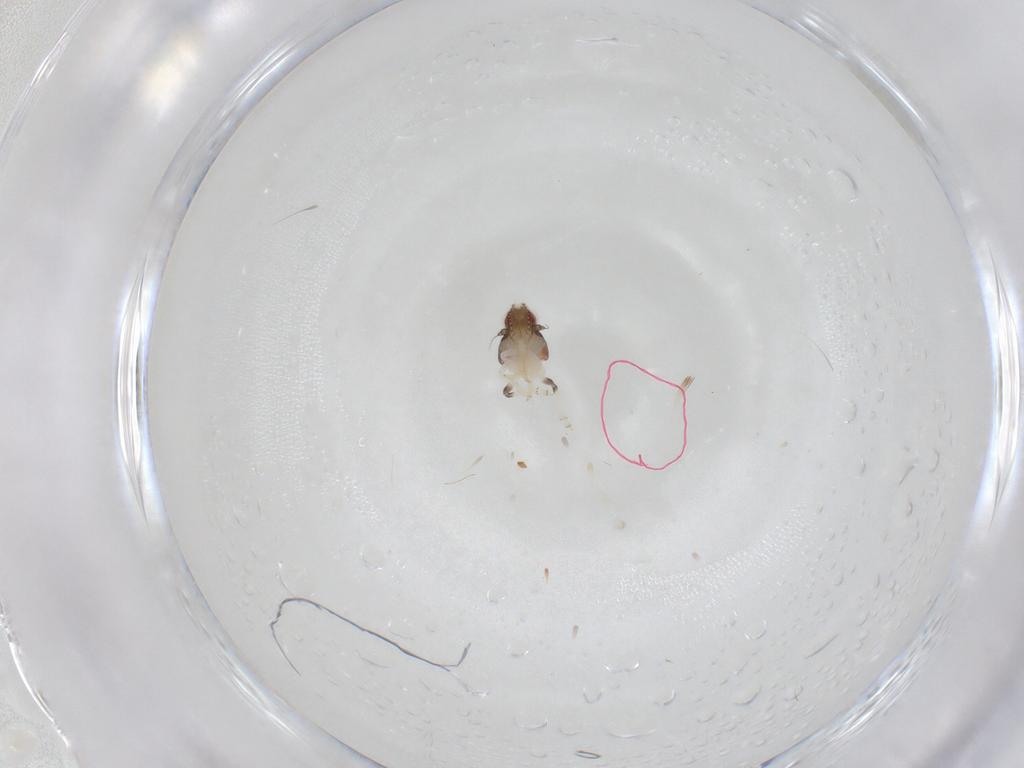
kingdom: Animalia
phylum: Arthropoda
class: Insecta
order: Hemiptera
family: Nogodinidae
